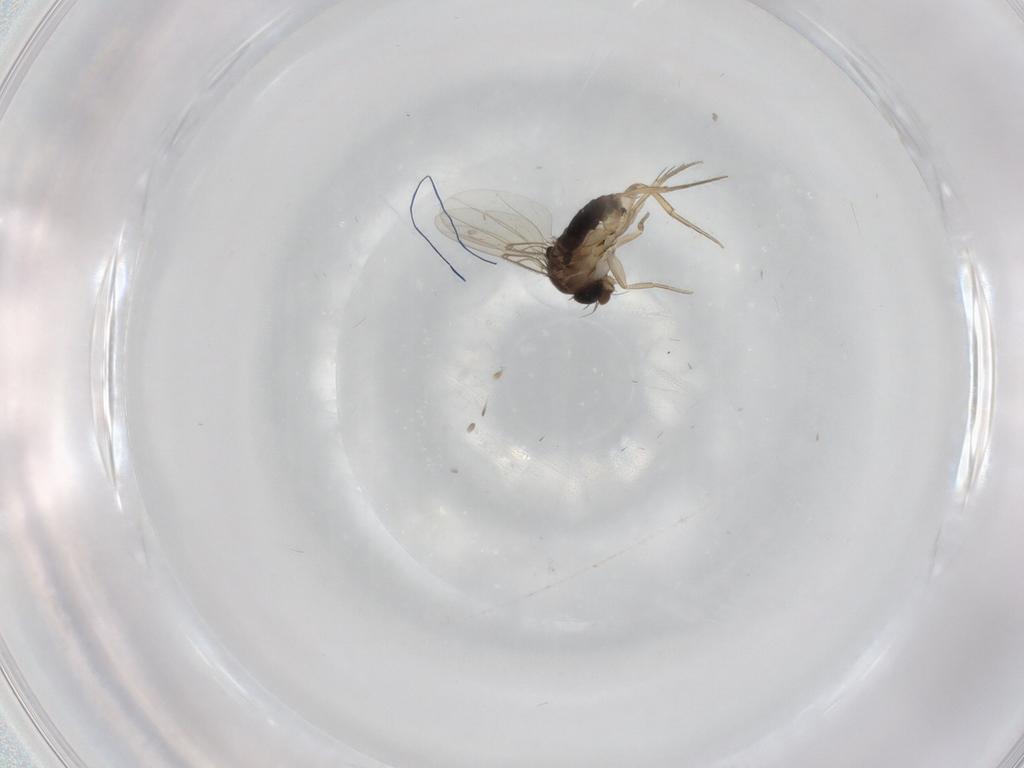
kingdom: Animalia
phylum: Arthropoda
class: Insecta
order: Diptera
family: Phoridae
